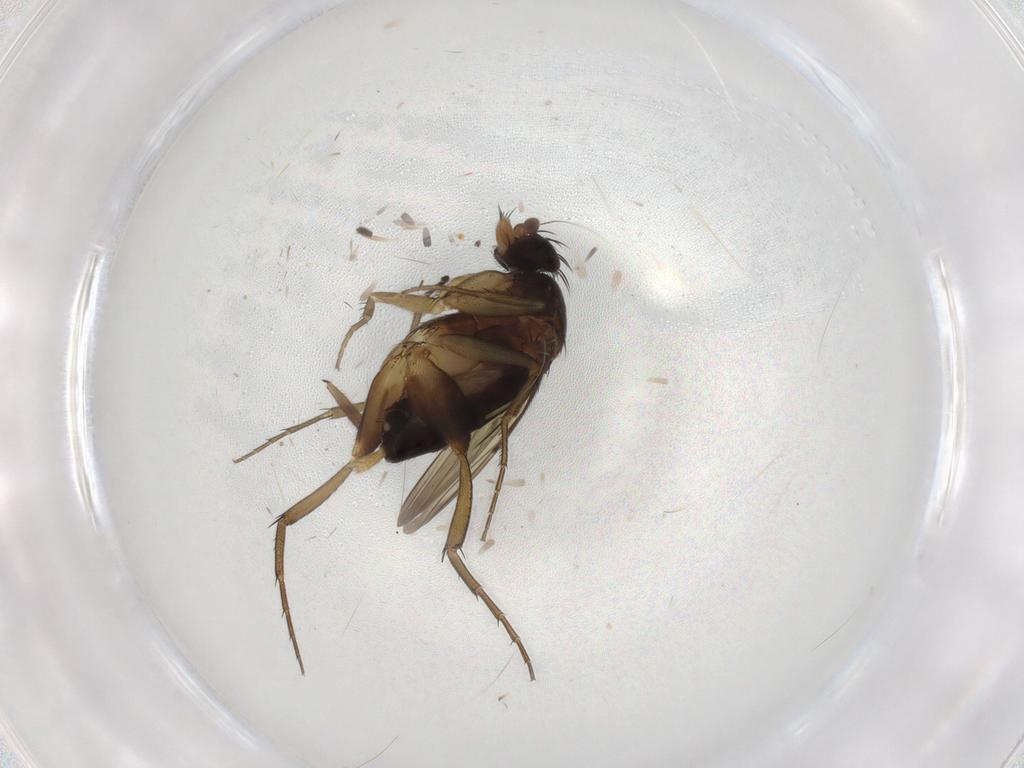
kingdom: Animalia
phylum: Arthropoda
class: Insecta
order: Diptera
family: Phoridae
